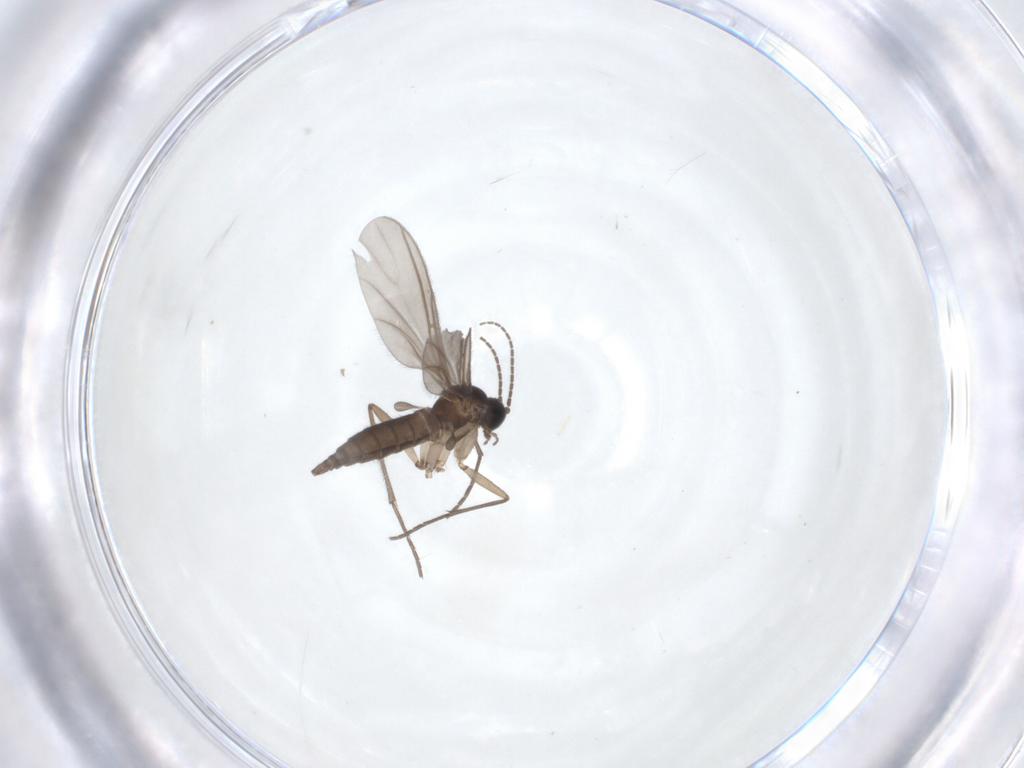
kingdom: Animalia
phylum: Arthropoda
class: Insecta
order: Diptera
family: Sciaridae
